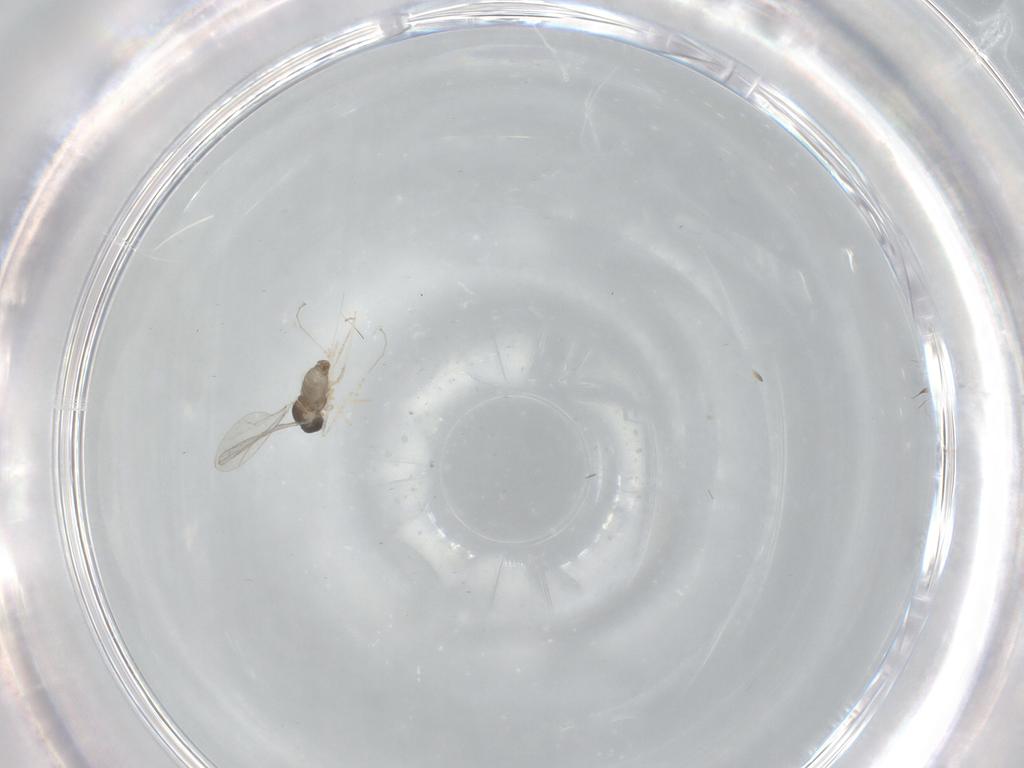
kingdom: Animalia
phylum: Arthropoda
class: Insecta
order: Diptera
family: Cecidomyiidae
